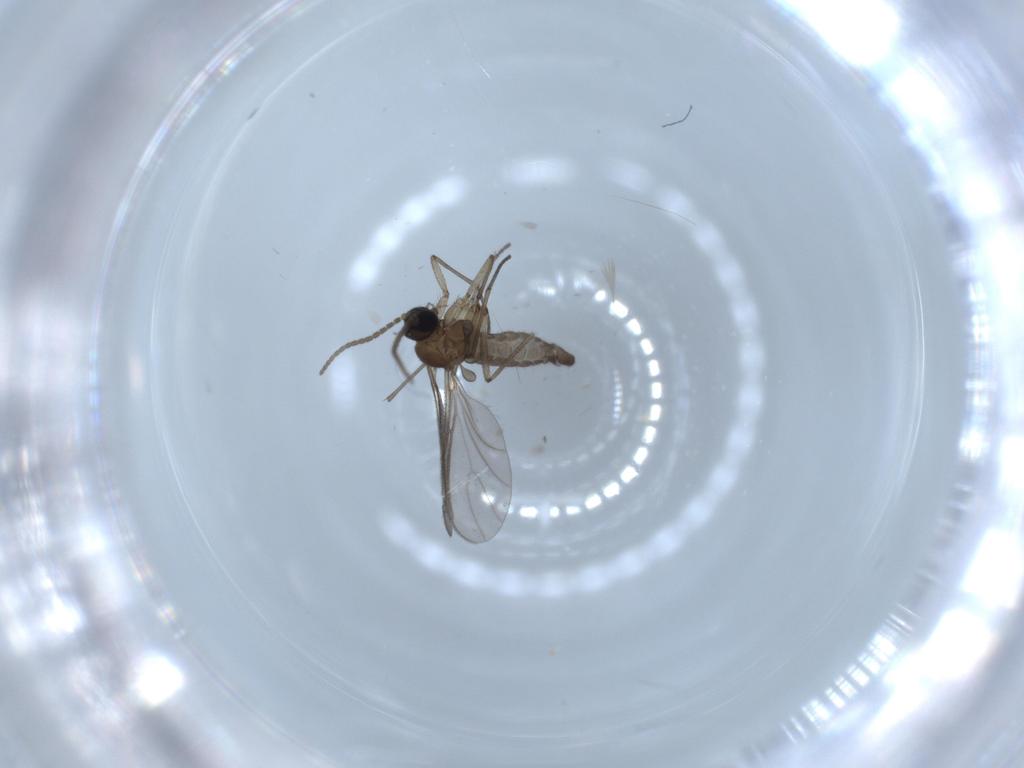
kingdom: Animalia
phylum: Arthropoda
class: Insecta
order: Diptera
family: Sciaridae
